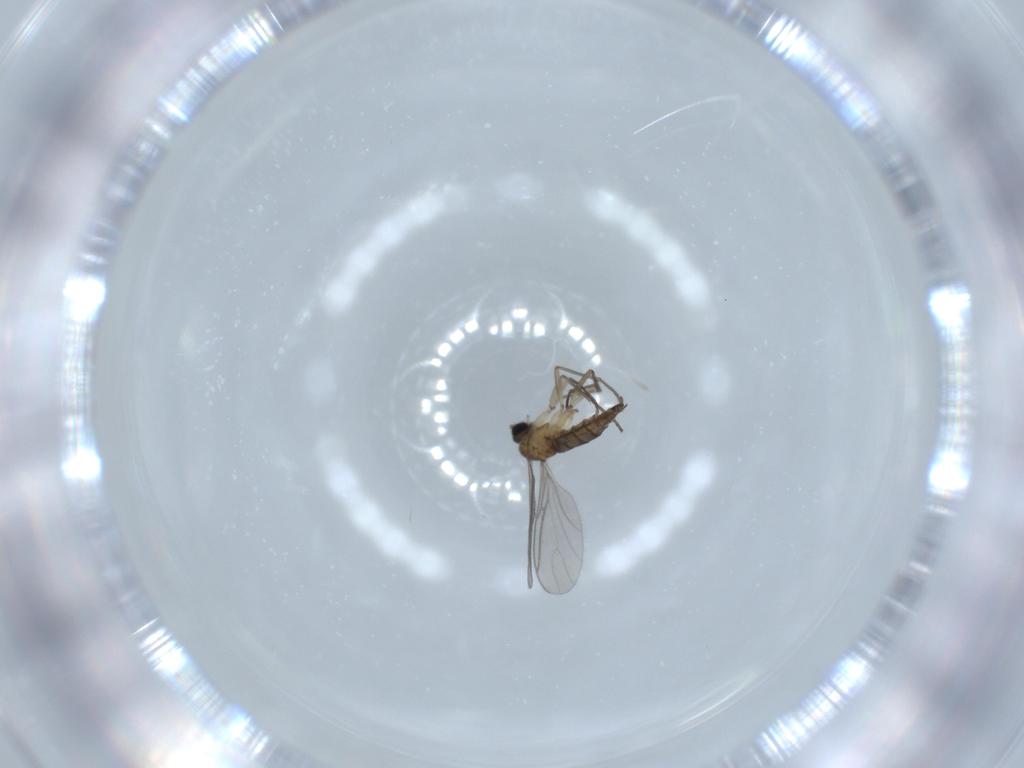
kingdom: Animalia
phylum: Arthropoda
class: Insecta
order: Diptera
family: Sciaridae
